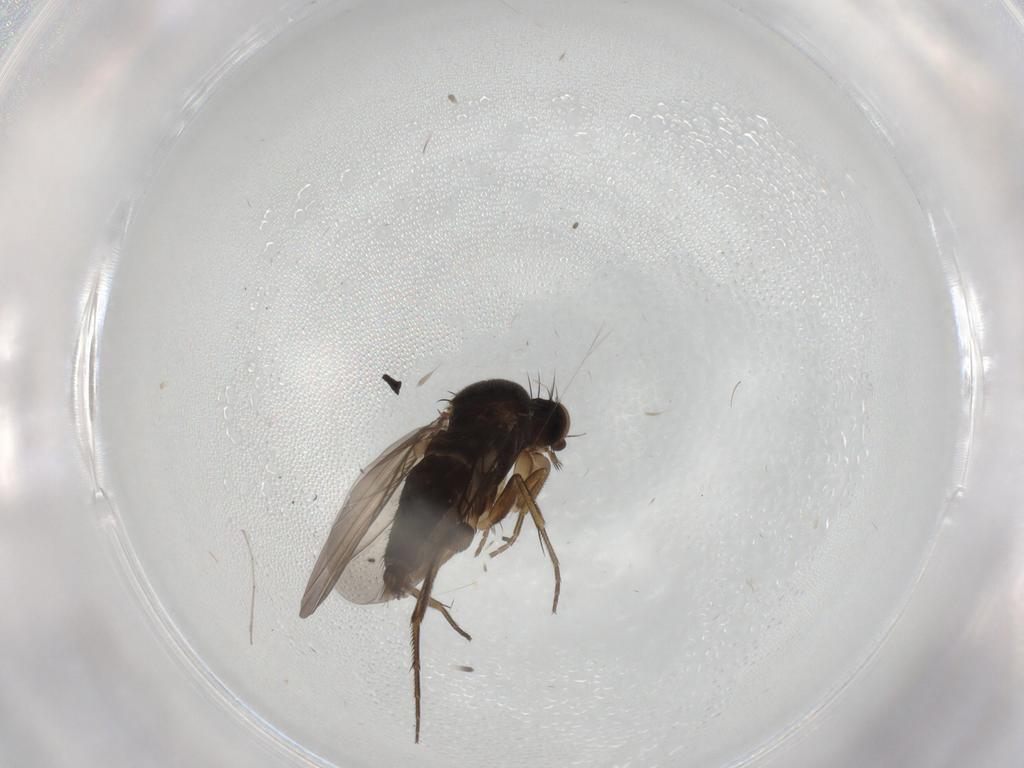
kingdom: Animalia
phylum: Arthropoda
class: Insecta
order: Diptera
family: Phoridae
